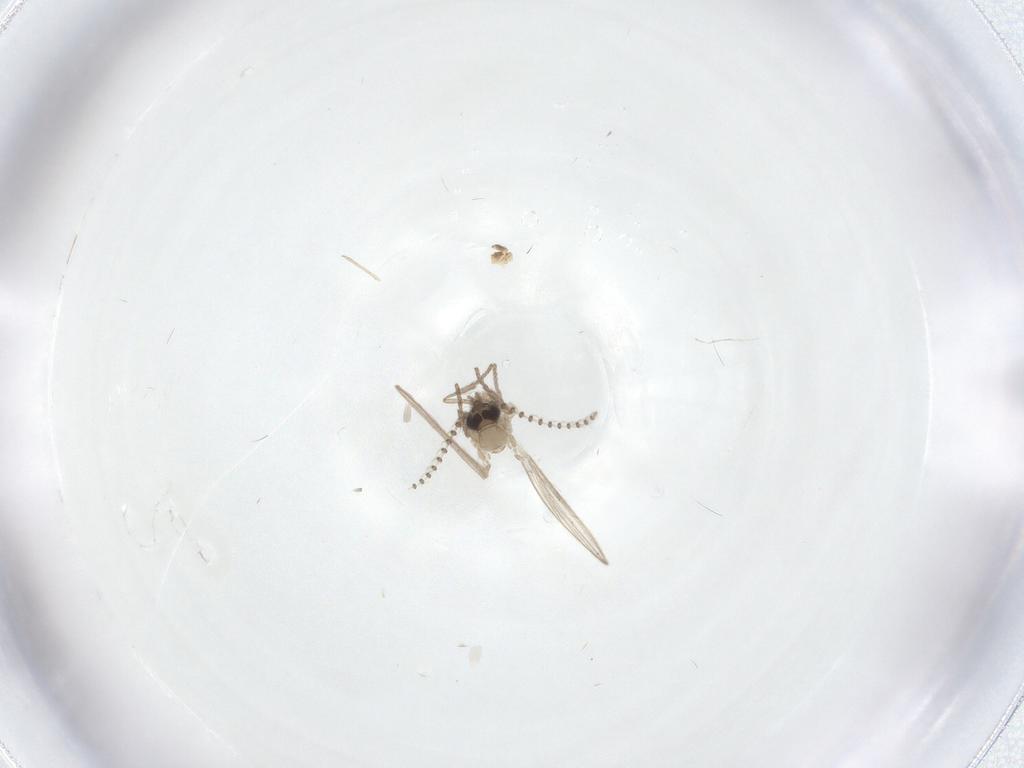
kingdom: Animalia
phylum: Arthropoda
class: Insecta
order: Diptera
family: Psychodidae
